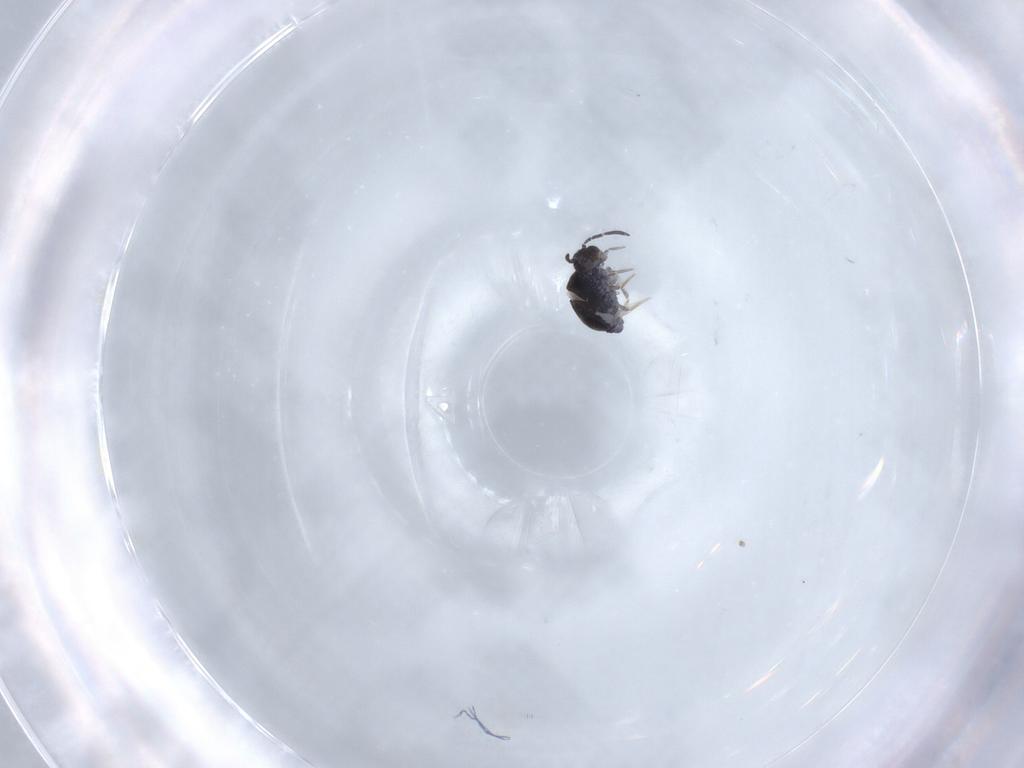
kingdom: Animalia
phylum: Arthropoda
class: Collembola
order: Symphypleona
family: Katiannidae
